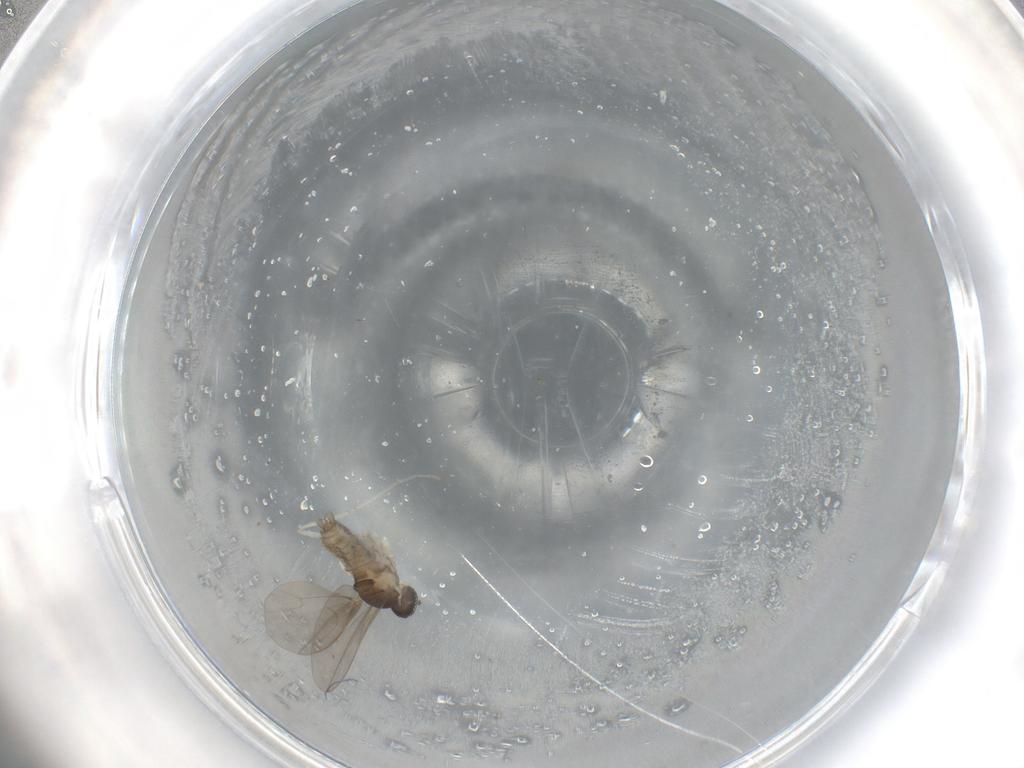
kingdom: Animalia
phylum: Arthropoda
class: Insecta
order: Diptera
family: Cecidomyiidae
